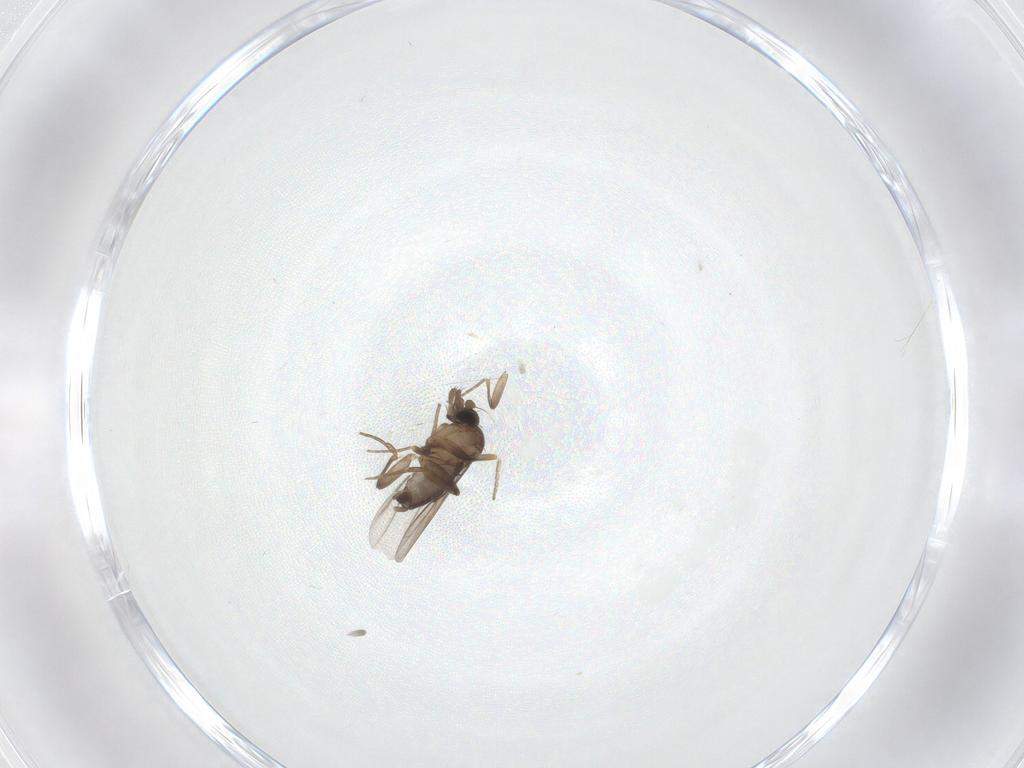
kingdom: Animalia
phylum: Arthropoda
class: Insecta
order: Diptera
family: Phoridae
